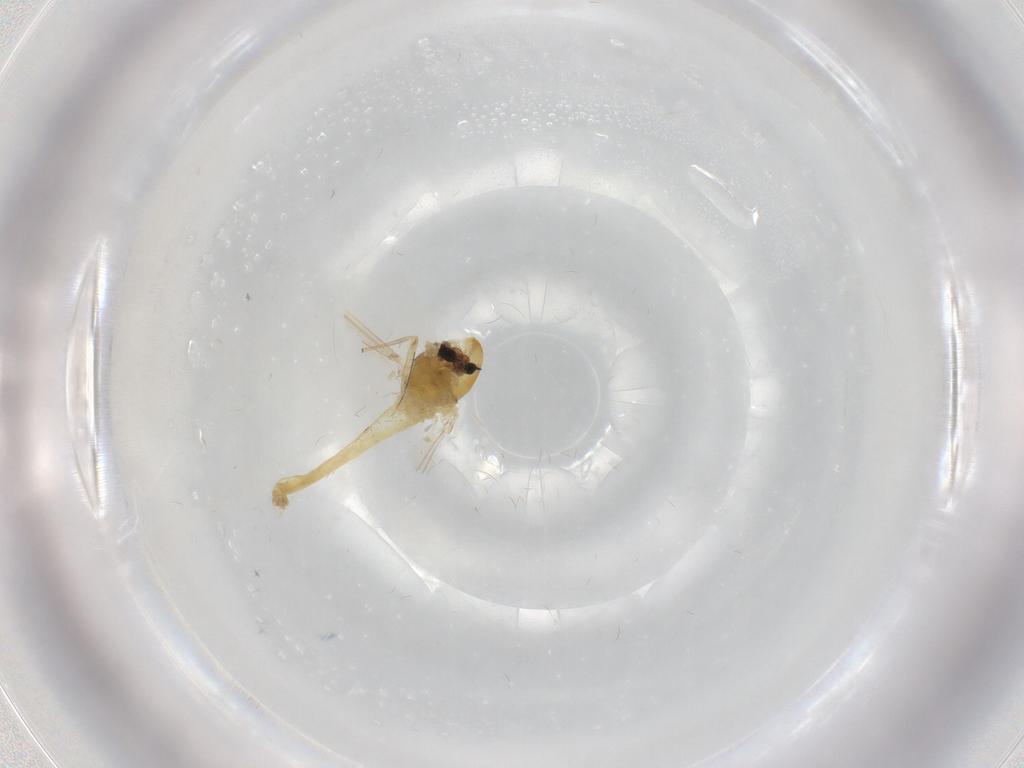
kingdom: Animalia
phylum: Arthropoda
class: Insecta
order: Diptera
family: Chironomidae
